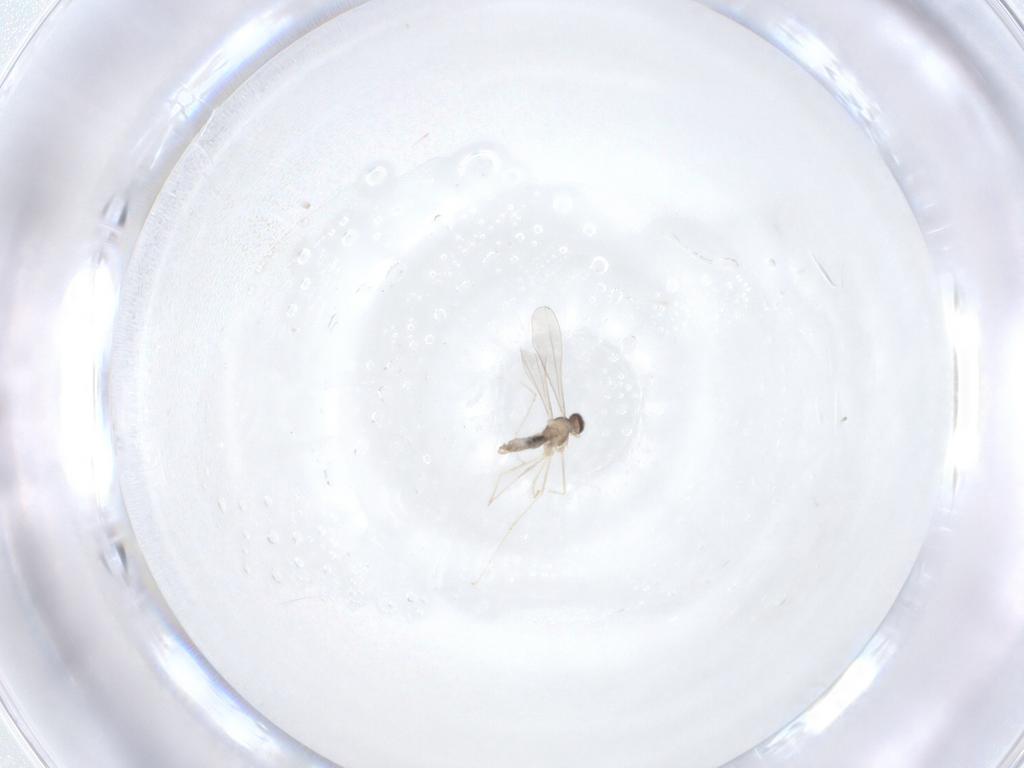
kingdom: Animalia
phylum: Arthropoda
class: Insecta
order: Diptera
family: Cecidomyiidae
